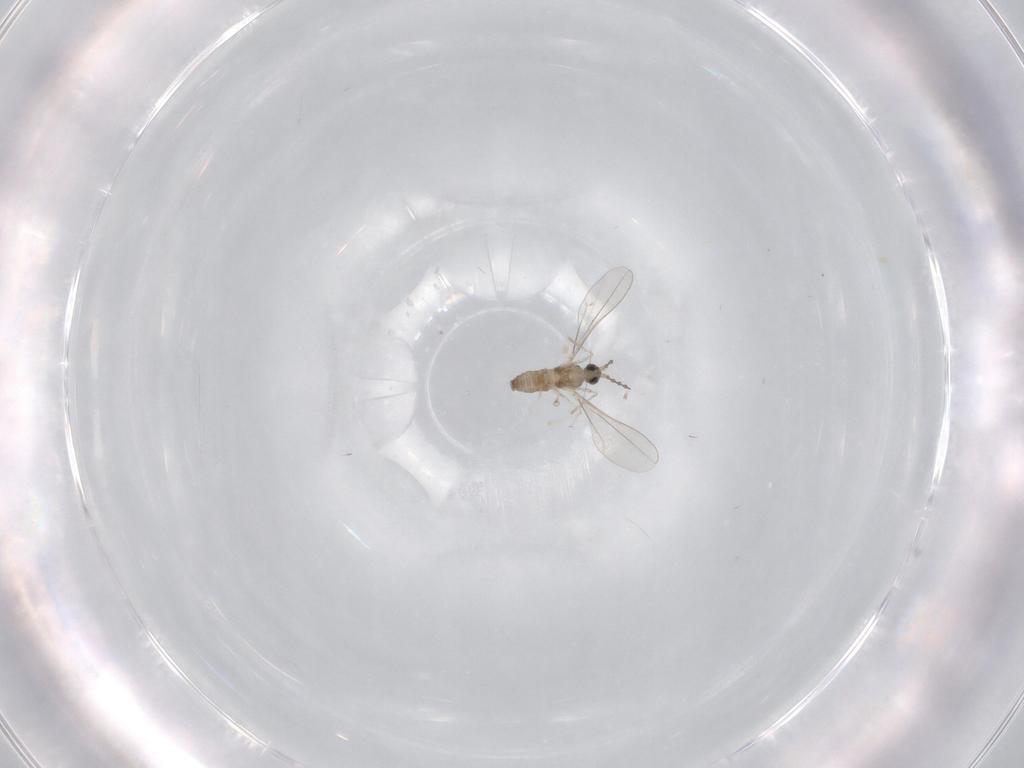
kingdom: Animalia
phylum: Arthropoda
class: Insecta
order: Diptera
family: Cecidomyiidae
